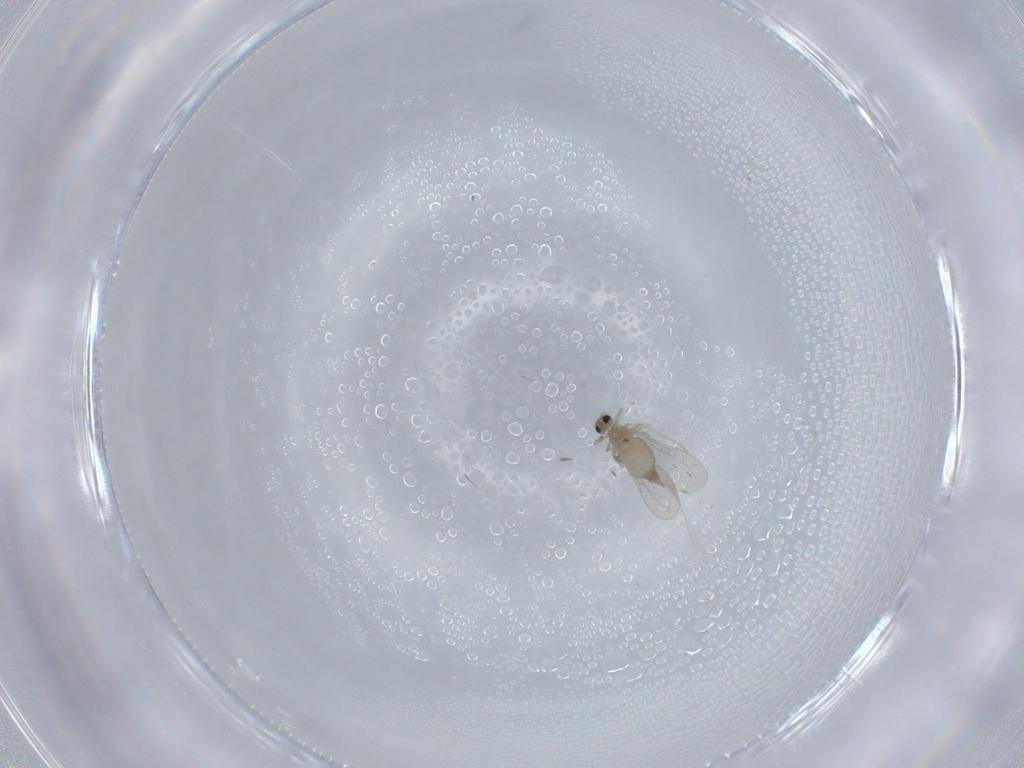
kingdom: Animalia
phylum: Arthropoda
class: Insecta
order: Diptera
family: Cecidomyiidae
